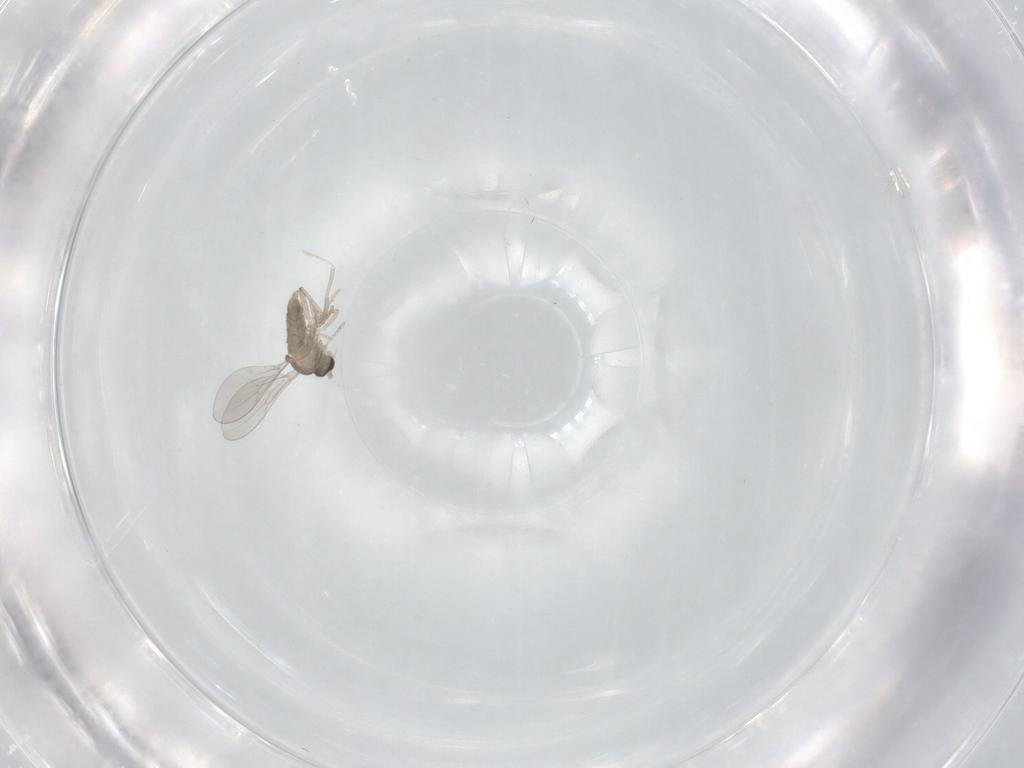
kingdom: Animalia
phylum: Arthropoda
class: Insecta
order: Diptera
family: Cecidomyiidae
